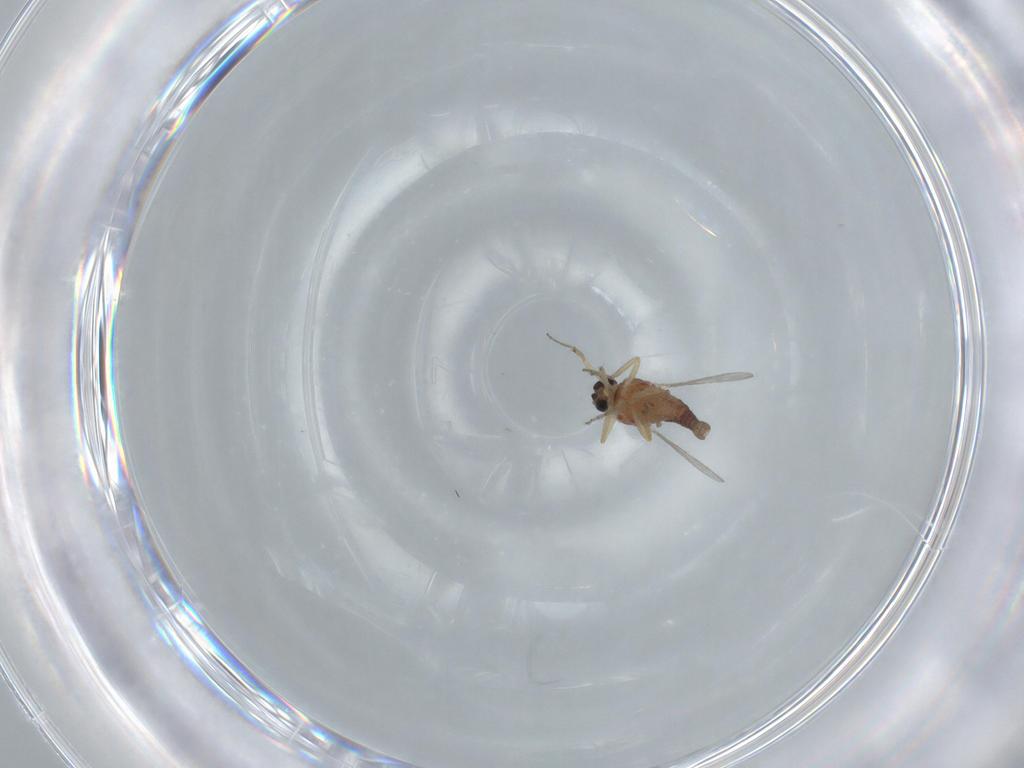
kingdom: Animalia
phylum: Arthropoda
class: Insecta
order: Diptera
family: Ceratopogonidae
